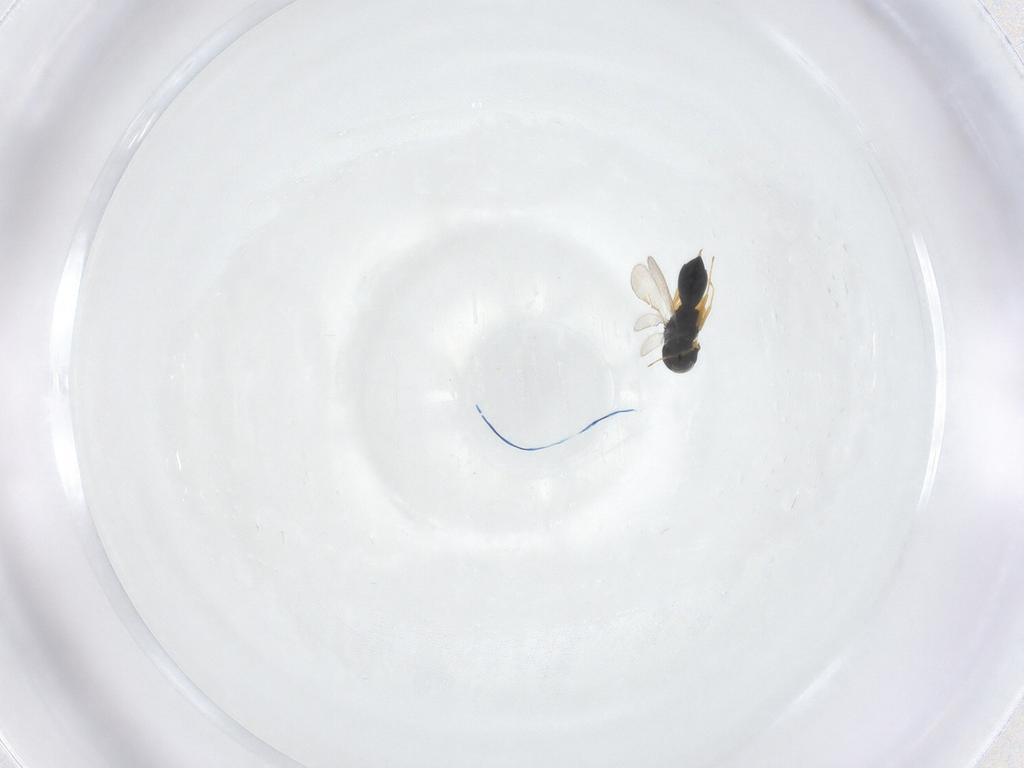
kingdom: Animalia
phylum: Arthropoda
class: Insecta
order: Hymenoptera
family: Scelionidae
